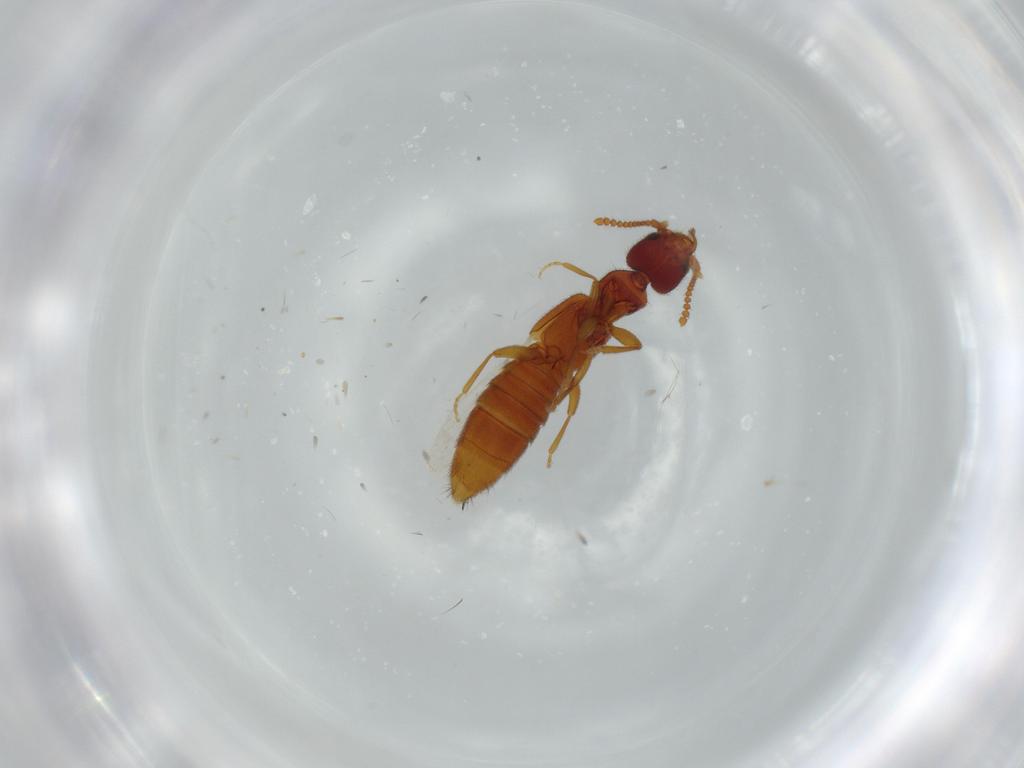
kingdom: Animalia
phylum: Arthropoda
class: Insecta
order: Coleoptera
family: Staphylinidae
